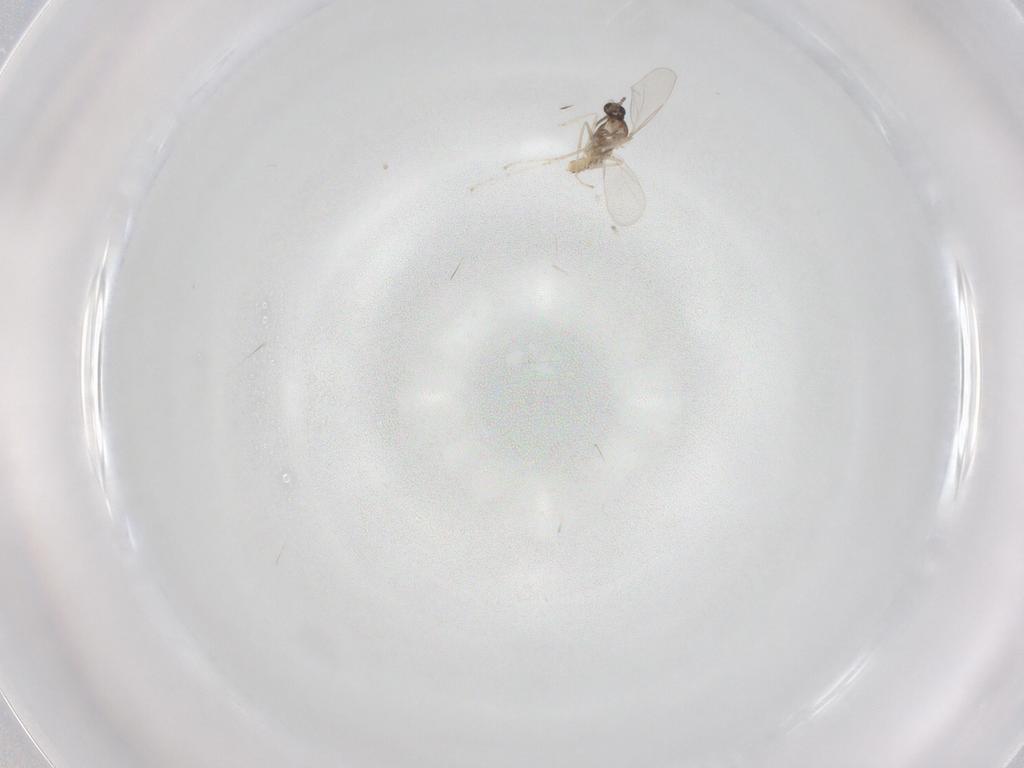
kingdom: Animalia
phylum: Arthropoda
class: Insecta
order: Diptera
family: Cecidomyiidae
